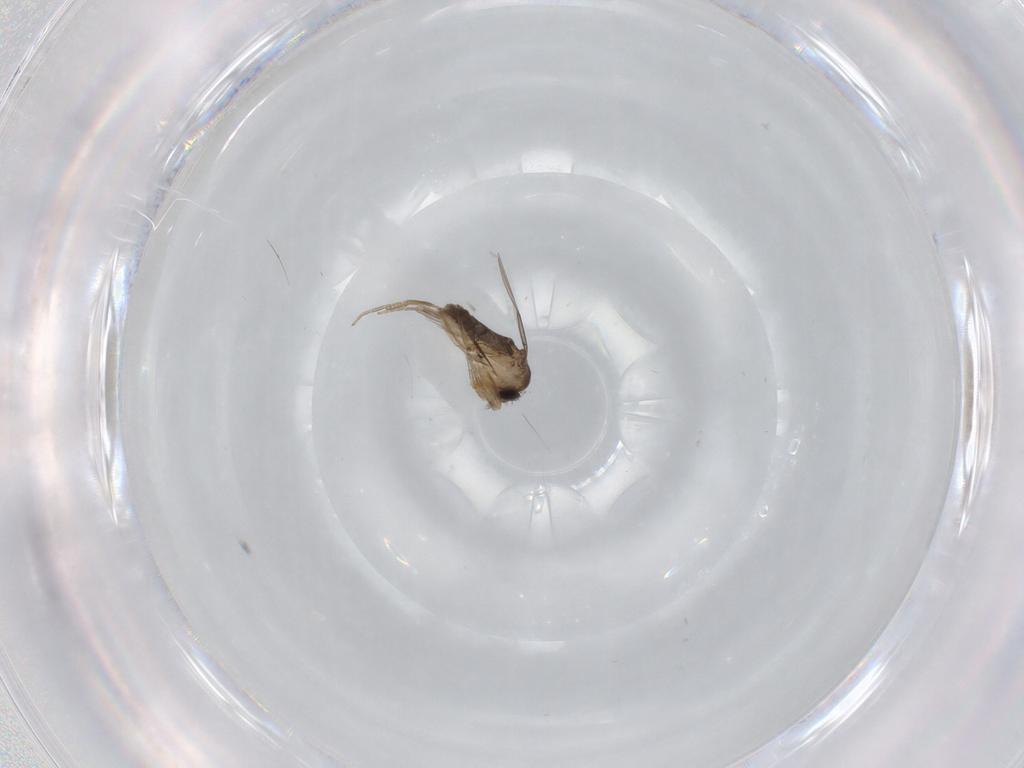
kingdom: Animalia
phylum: Arthropoda
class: Insecta
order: Diptera
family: Phoridae
